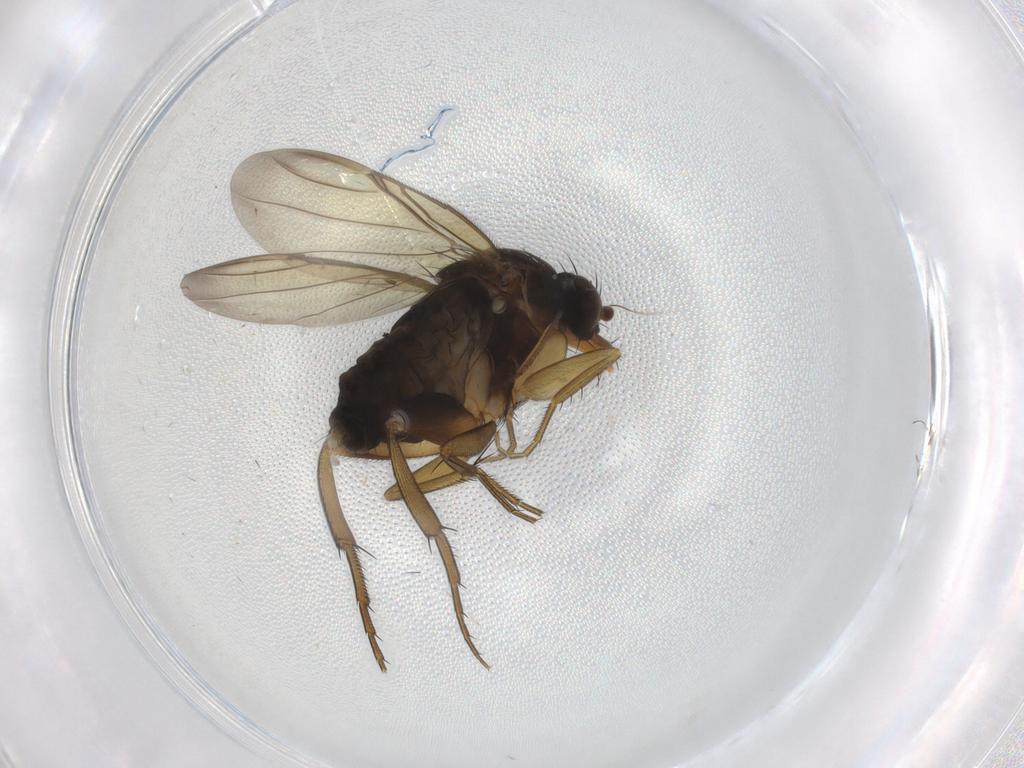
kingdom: Animalia
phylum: Arthropoda
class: Insecta
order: Diptera
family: Phoridae
